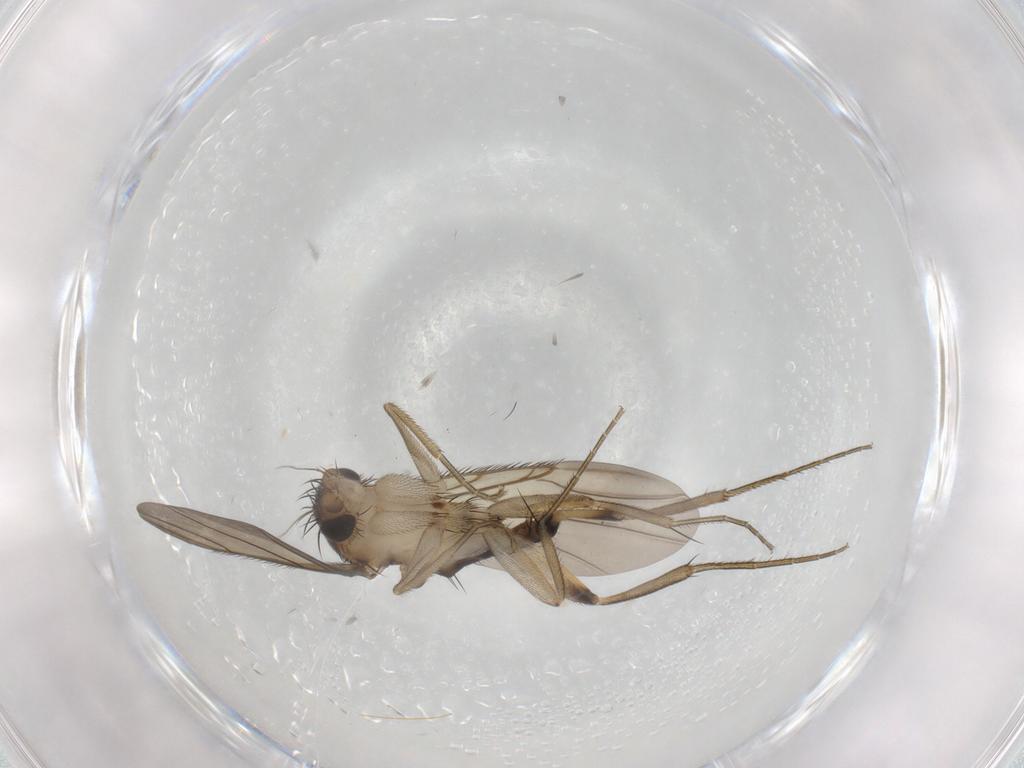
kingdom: Animalia
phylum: Arthropoda
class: Insecta
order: Diptera
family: Phoridae
